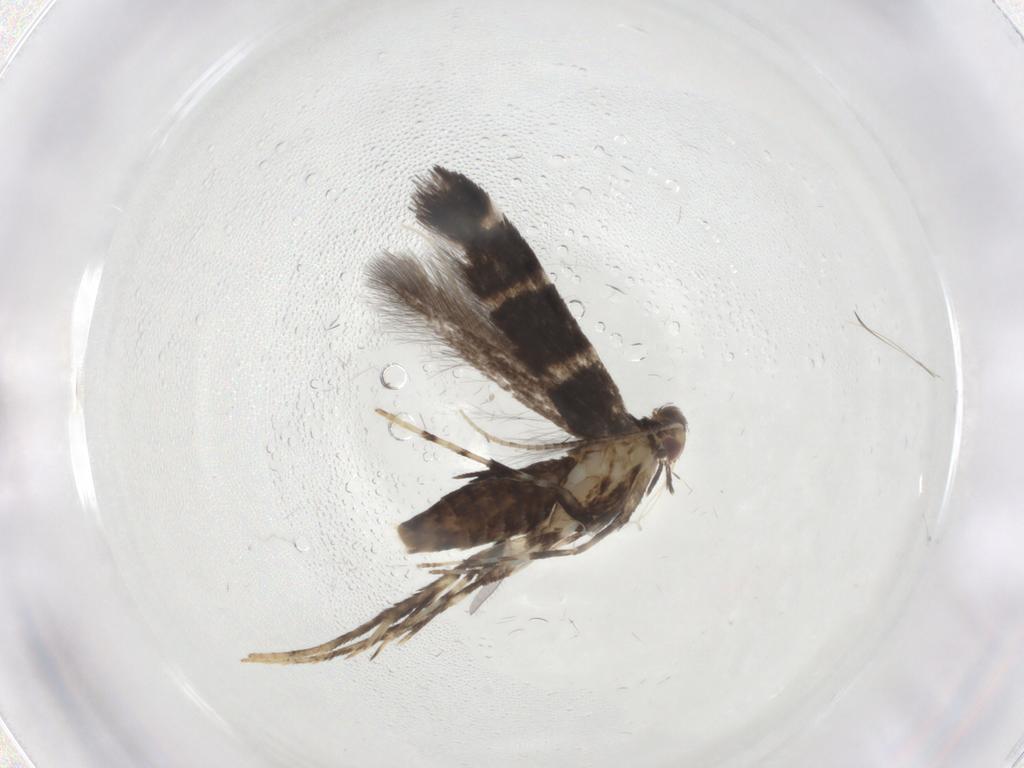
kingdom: Animalia
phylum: Arthropoda
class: Insecta
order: Lepidoptera
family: Gracillariidae
